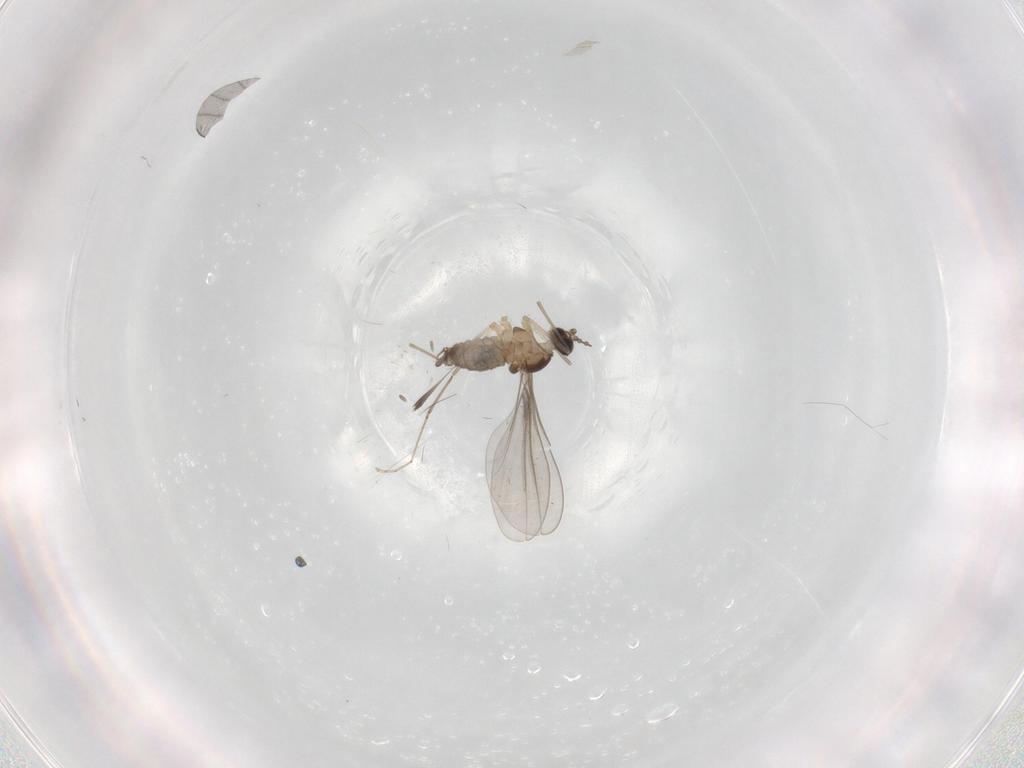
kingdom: Animalia
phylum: Arthropoda
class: Insecta
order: Diptera
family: Cecidomyiidae
